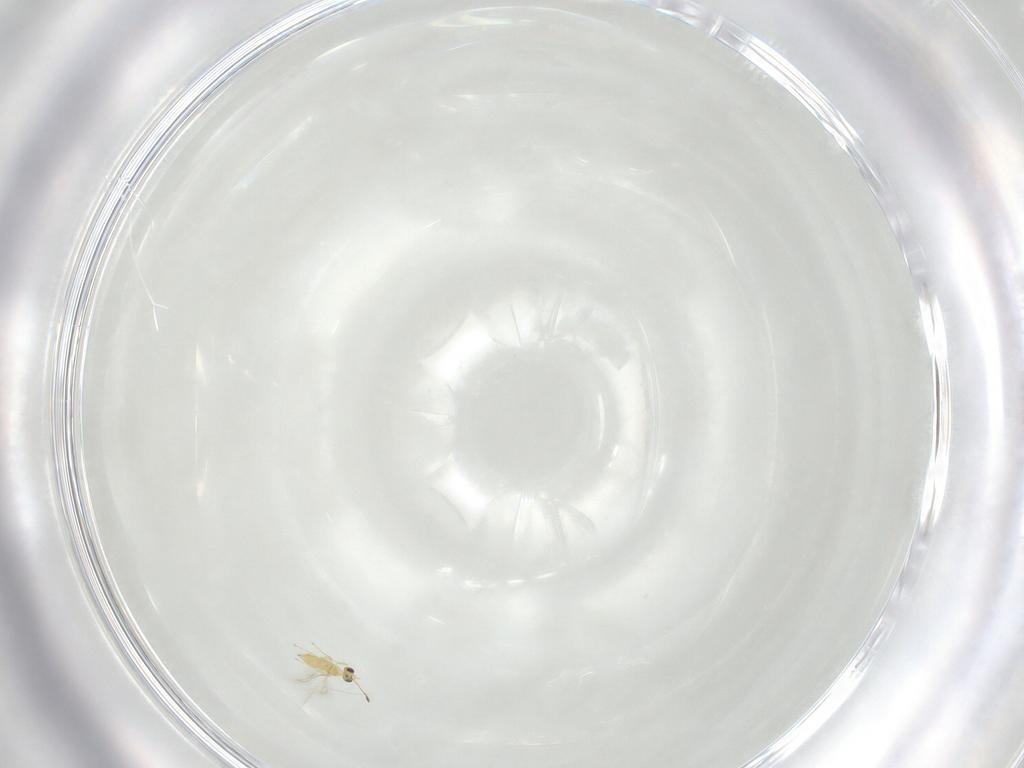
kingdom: Animalia
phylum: Arthropoda
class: Insecta
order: Hymenoptera
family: Mymaridae
